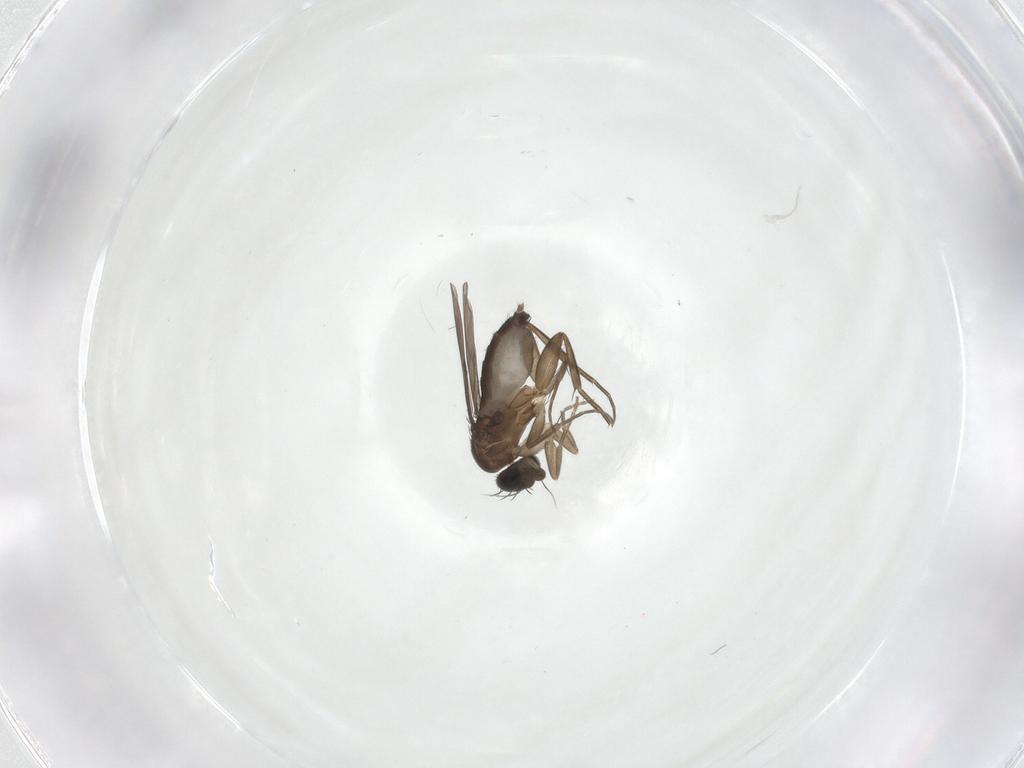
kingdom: Animalia
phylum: Arthropoda
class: Insecta
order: Diptera
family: Phoridae
